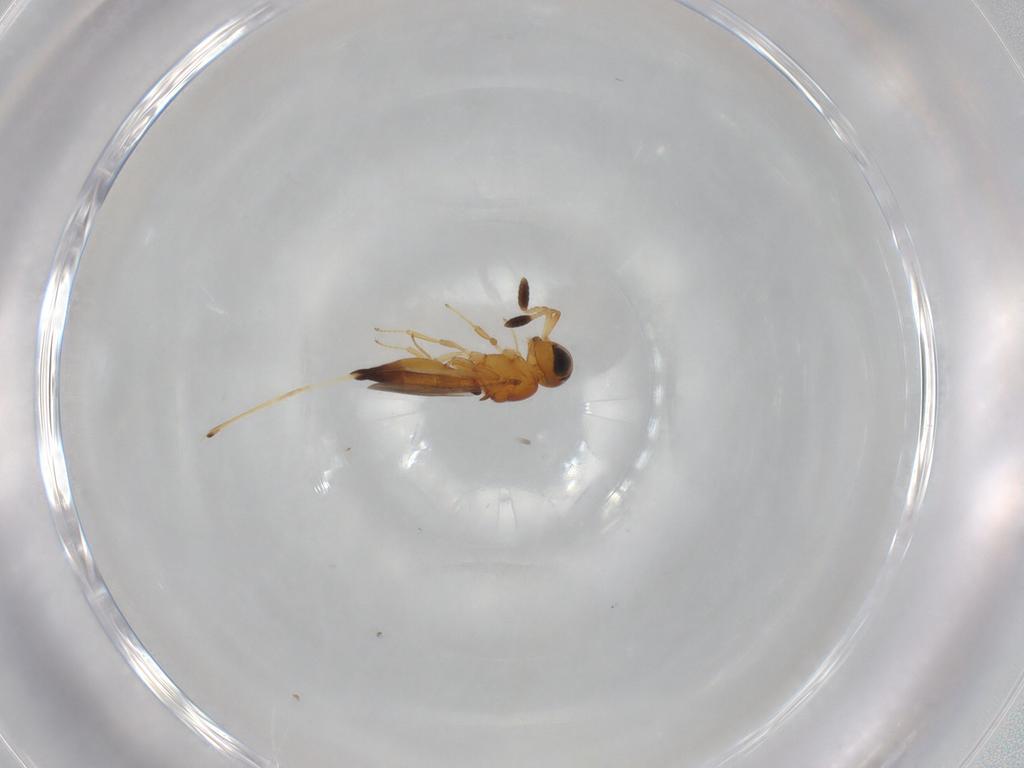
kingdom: Animalia
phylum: Arthropoda
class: Insecta
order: Hymenoptera
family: Scelionidae
